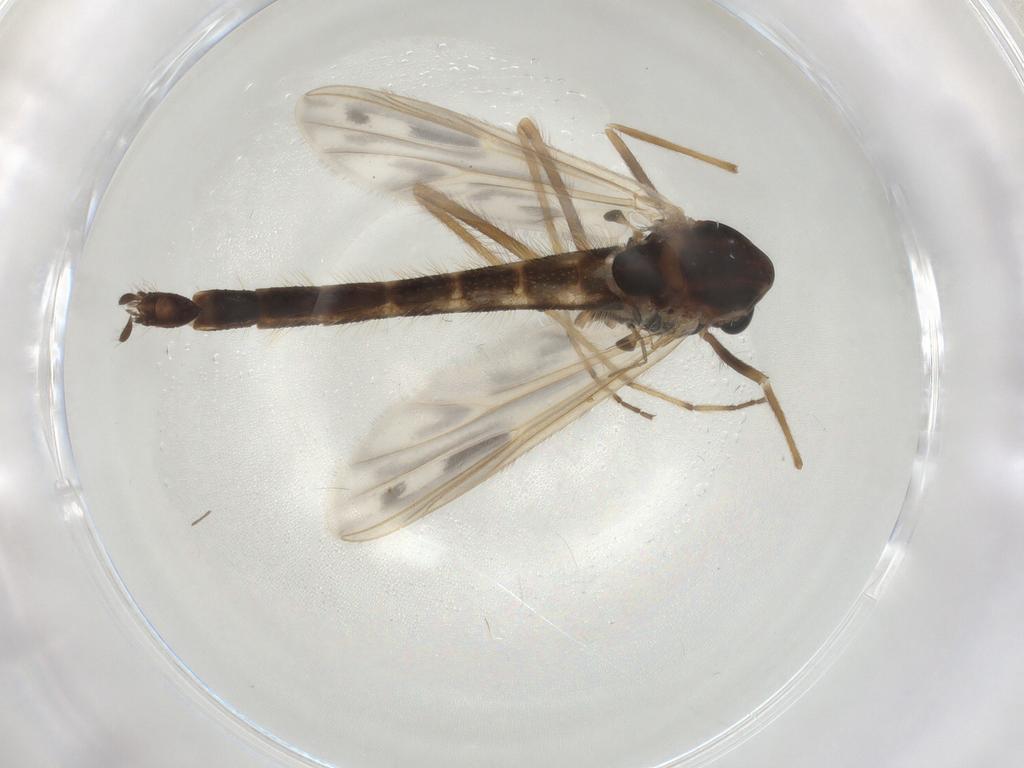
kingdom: Animalia
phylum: Arthropoda
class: Insecta
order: Diptera
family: Chironomidae
